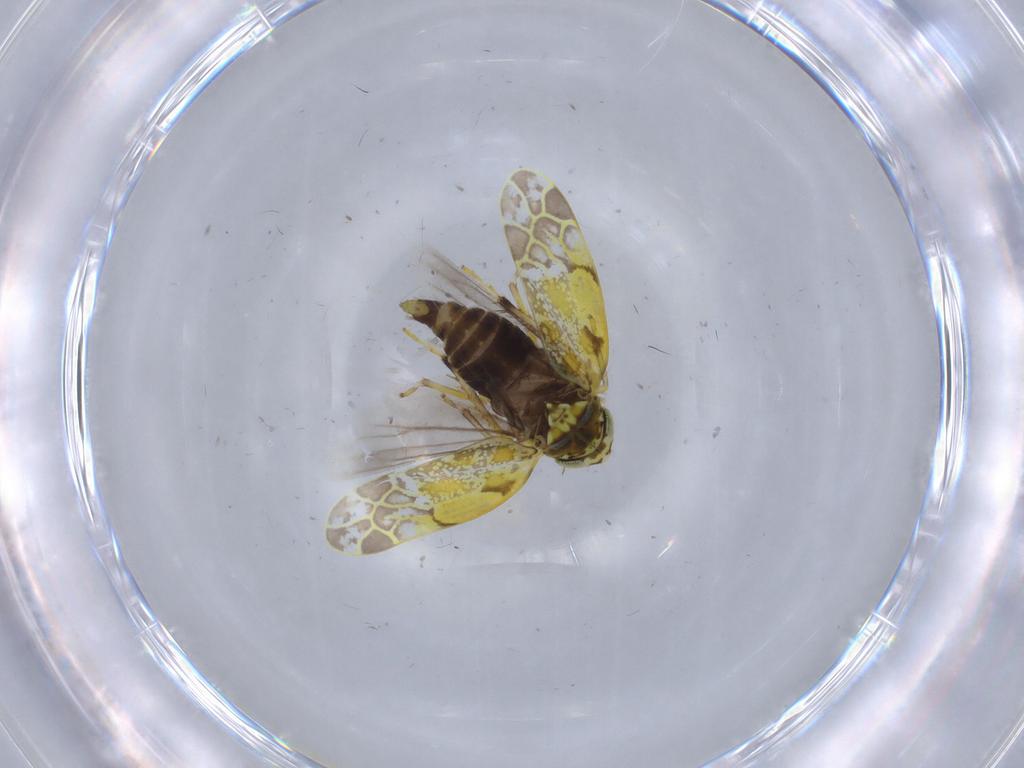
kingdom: Animalia
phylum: Arthropoda
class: Insecta
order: Hemiptera
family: Cicadellidae
